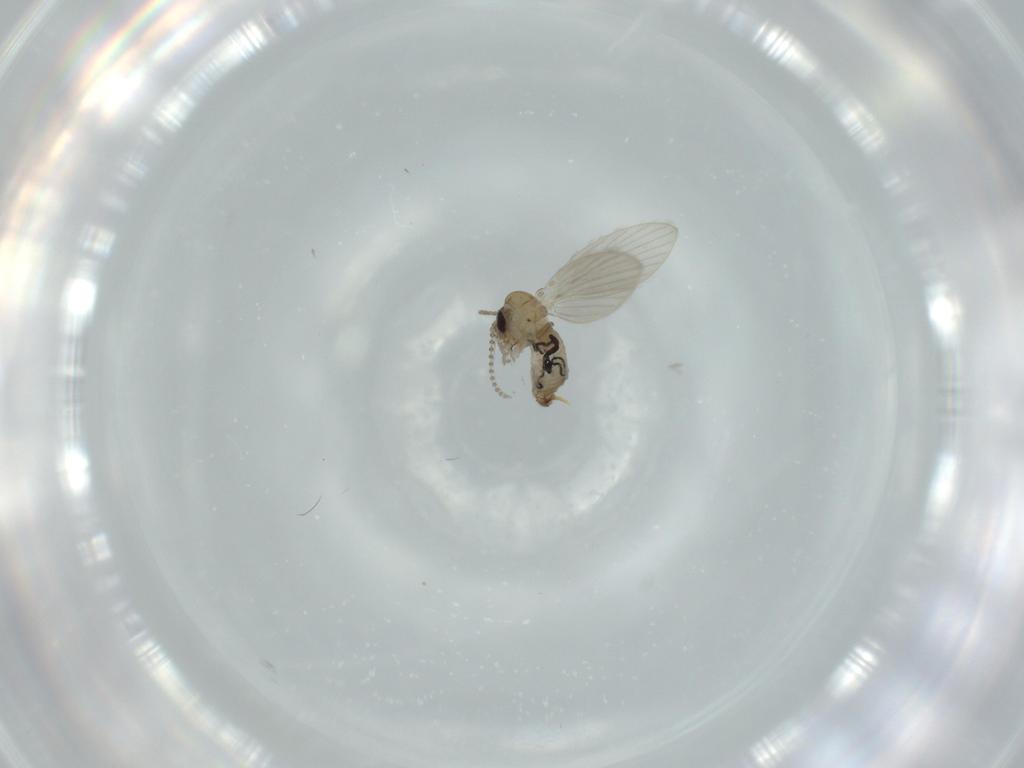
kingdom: Animalia
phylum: Arthropoda
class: Insecta
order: Diptera
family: Psychodidae
